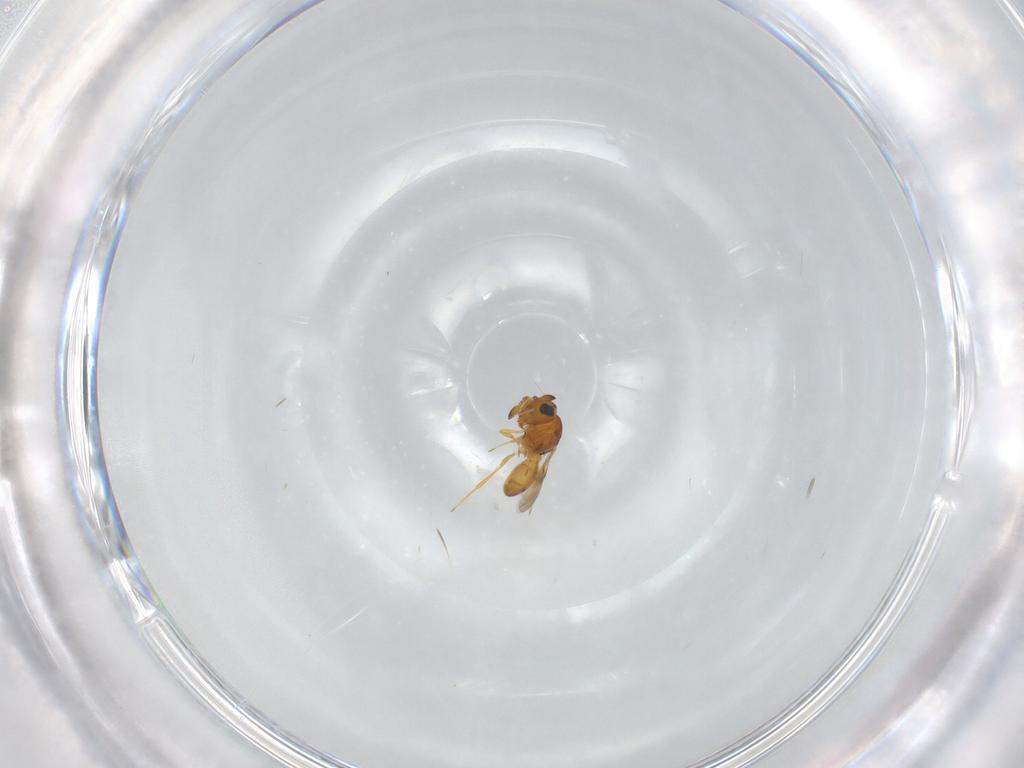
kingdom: Animalia
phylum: Arthropoda
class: Insecta
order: Hymenoptera
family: Scelionidae
